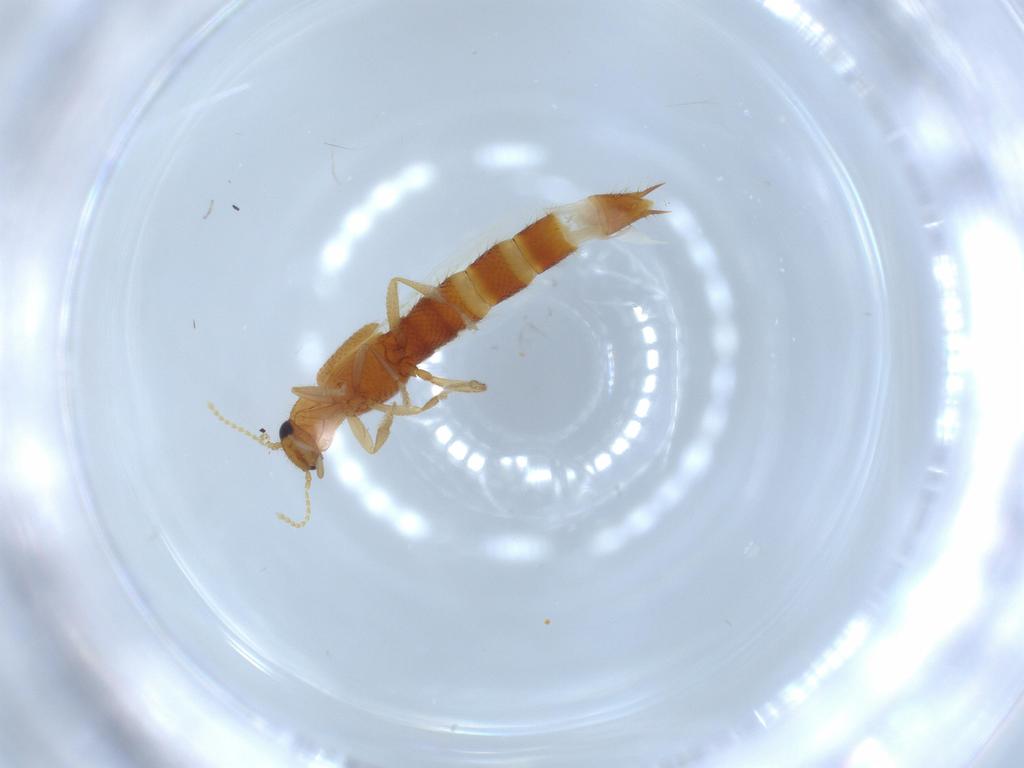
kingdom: Animalia
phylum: Arthropoda
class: Insecta
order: Coleoptera
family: Staphylinidae
